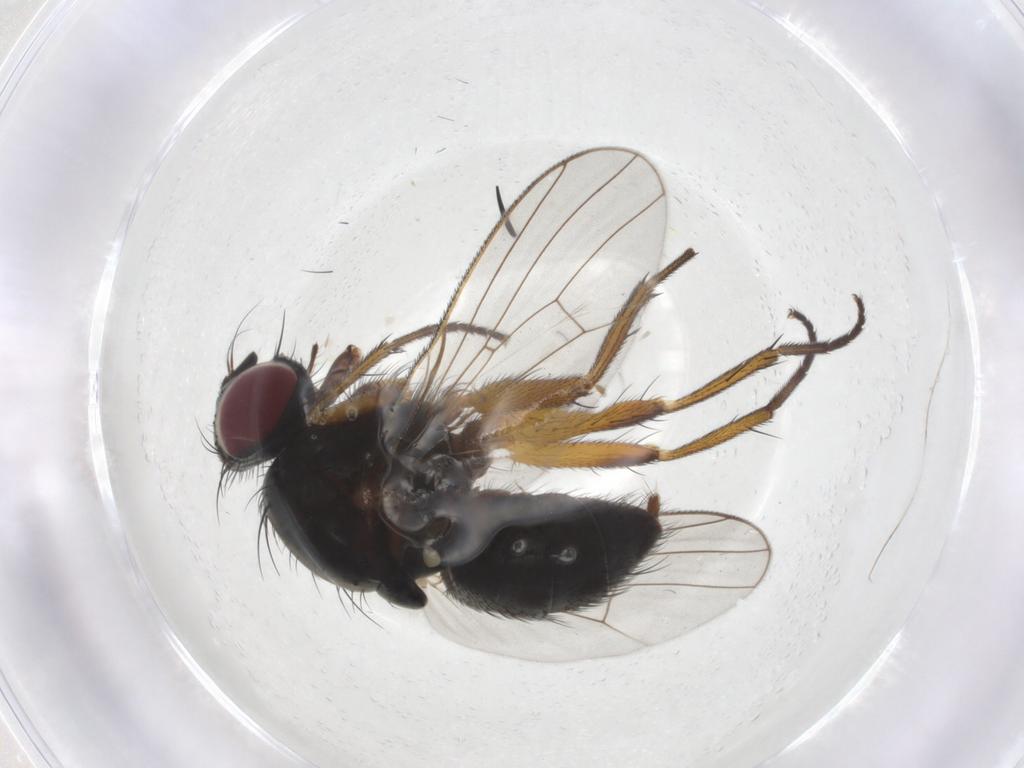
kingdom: Animalia
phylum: Arthropoda
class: Insecta
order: Diptera
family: Muscidae
